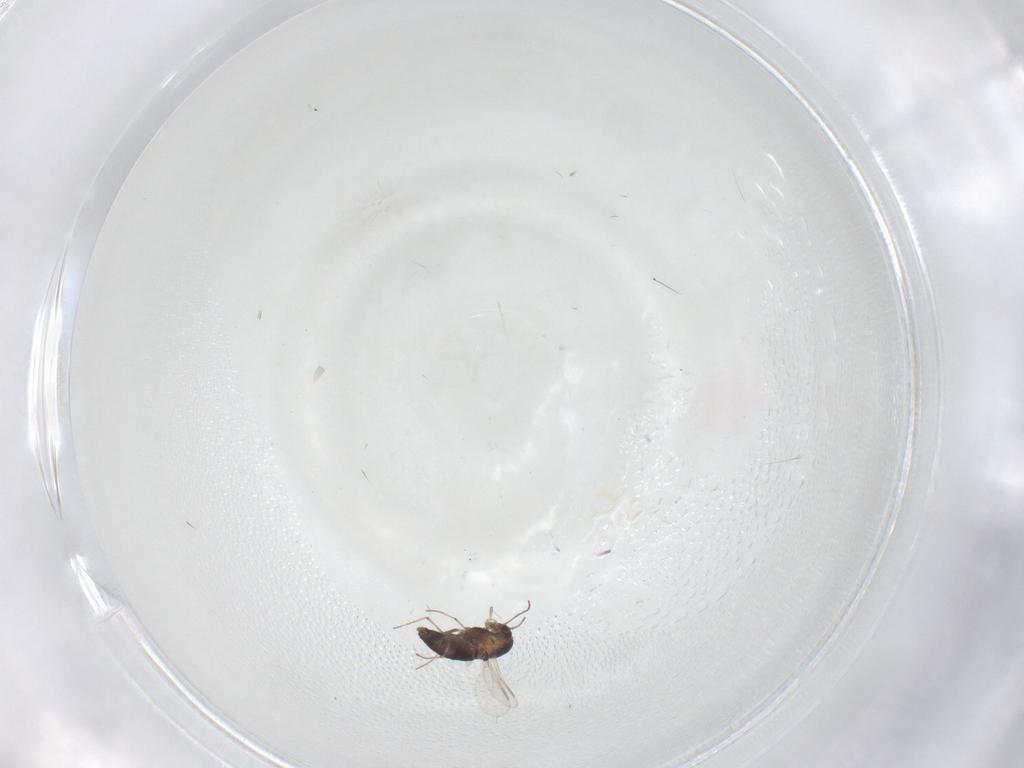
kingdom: Animalia
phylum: Arthropoda
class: Insecta
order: Diptera
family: Chironomidae
